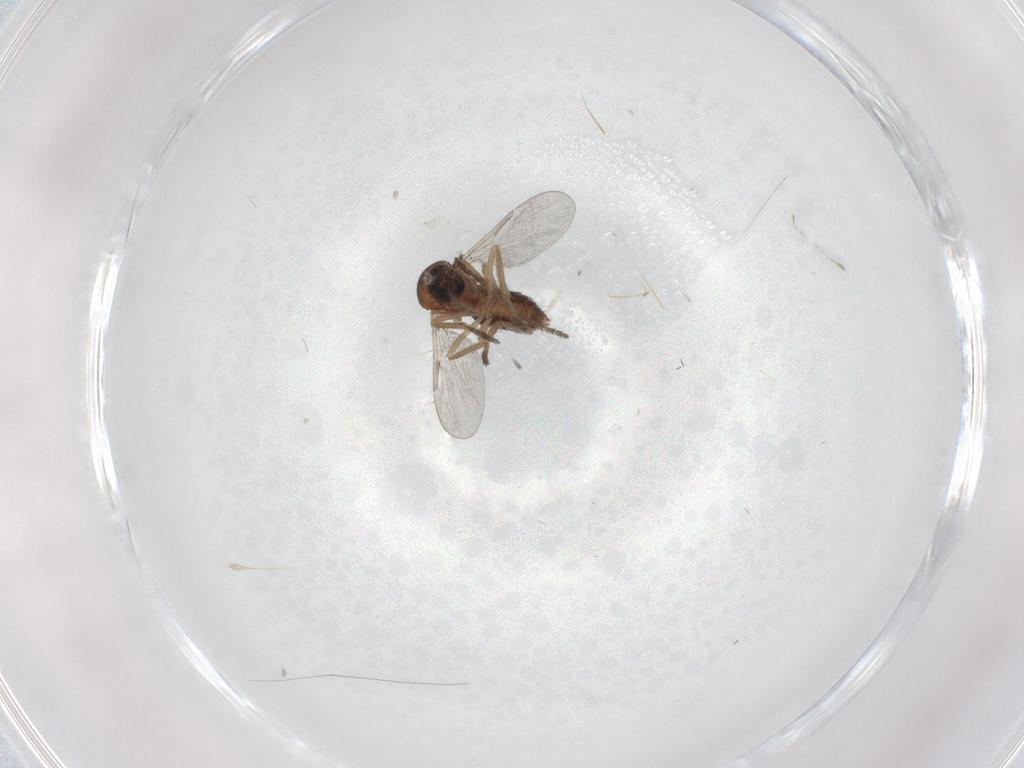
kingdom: Animalia
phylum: Arthropoda
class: Insecta
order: Diptera
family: Ceratopogonidae
